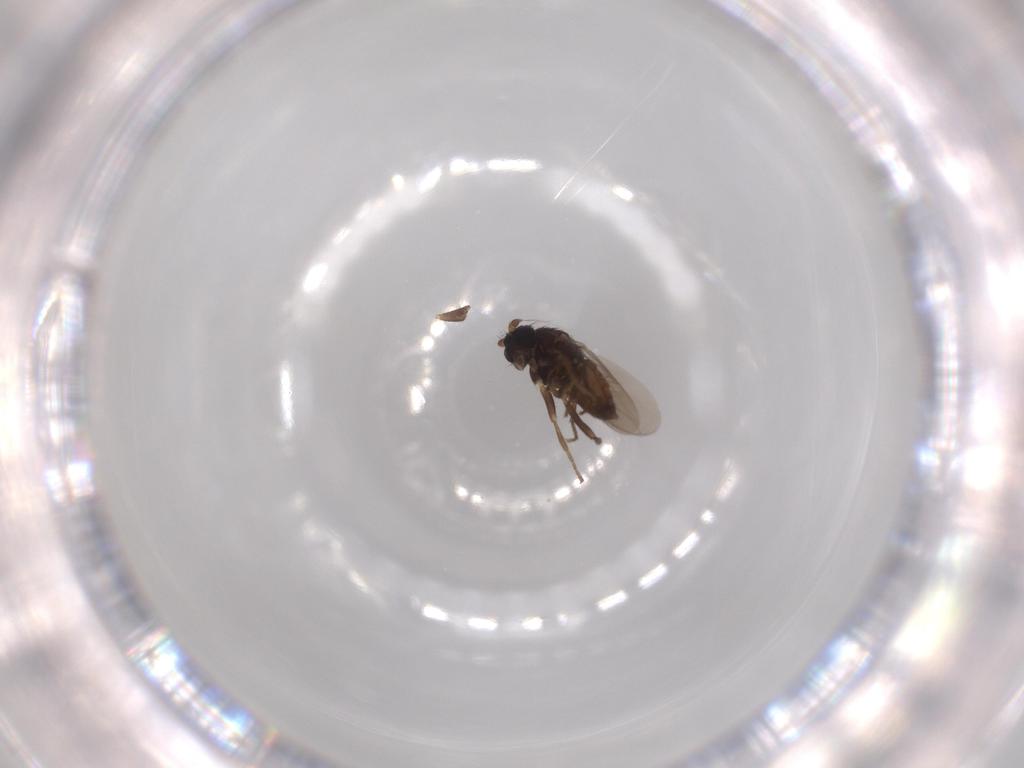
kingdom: Animalia
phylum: Arthropoda
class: Insecta
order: Diptera
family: Sphaeroceridae
